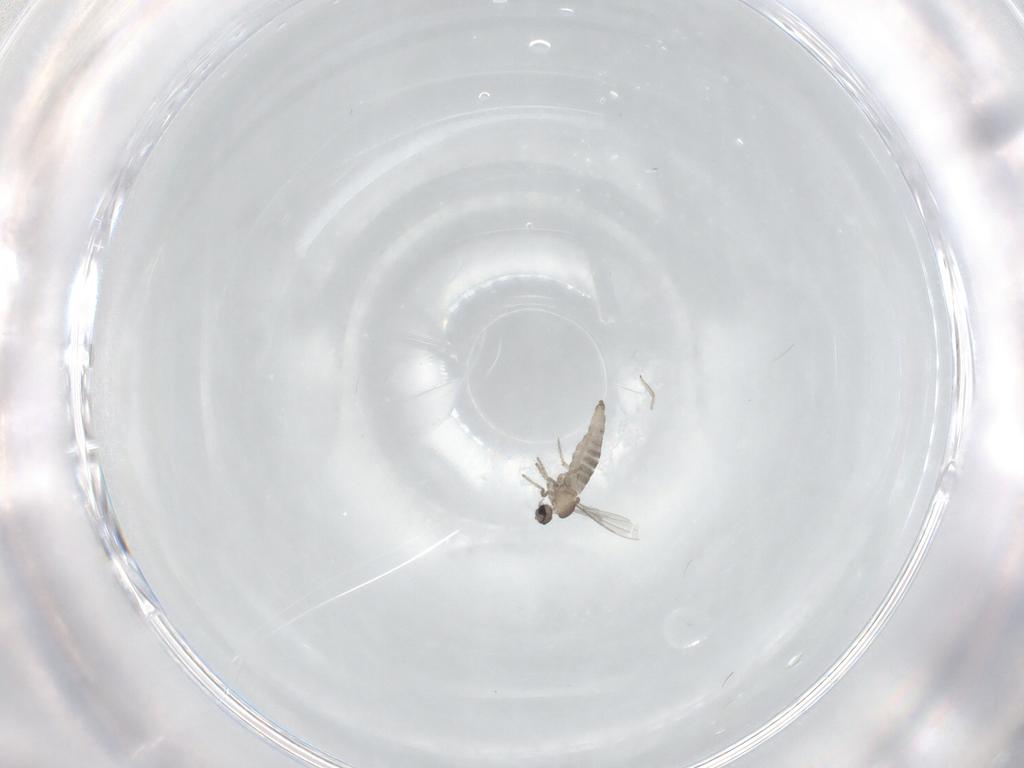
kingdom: Animalia
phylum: Arthropoda
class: Insecta
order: Diptera
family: Cecidomyiidae
